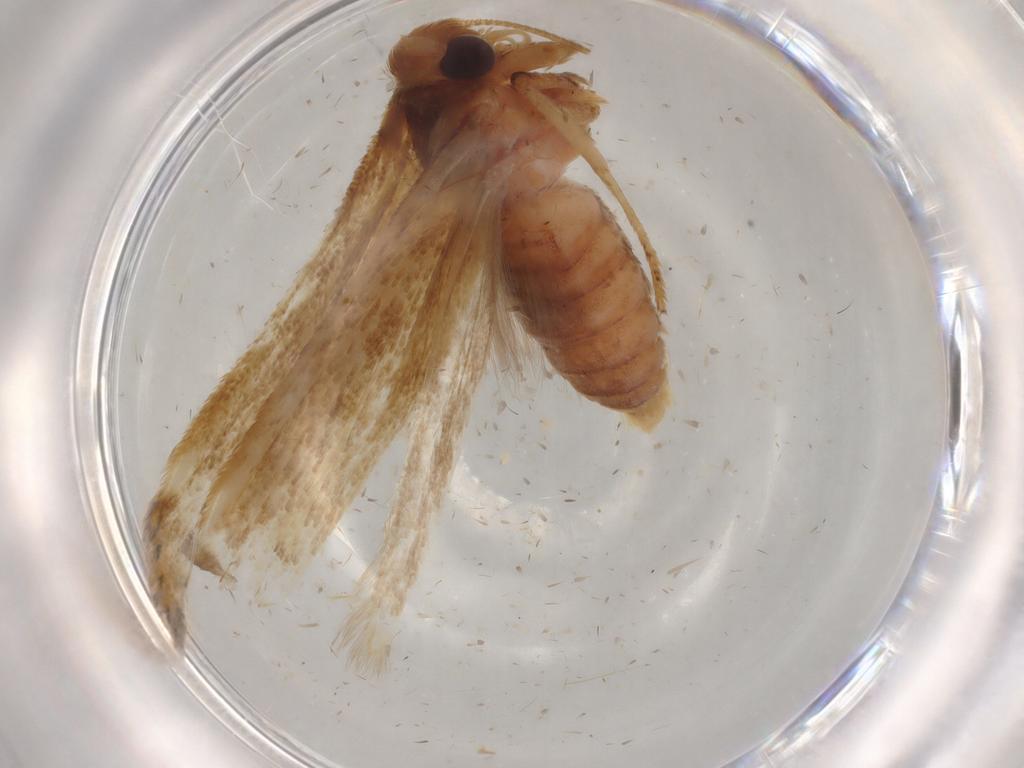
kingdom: Animalia
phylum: Arthropoda
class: Insecta
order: Lepidoptera
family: Blastobasidae
